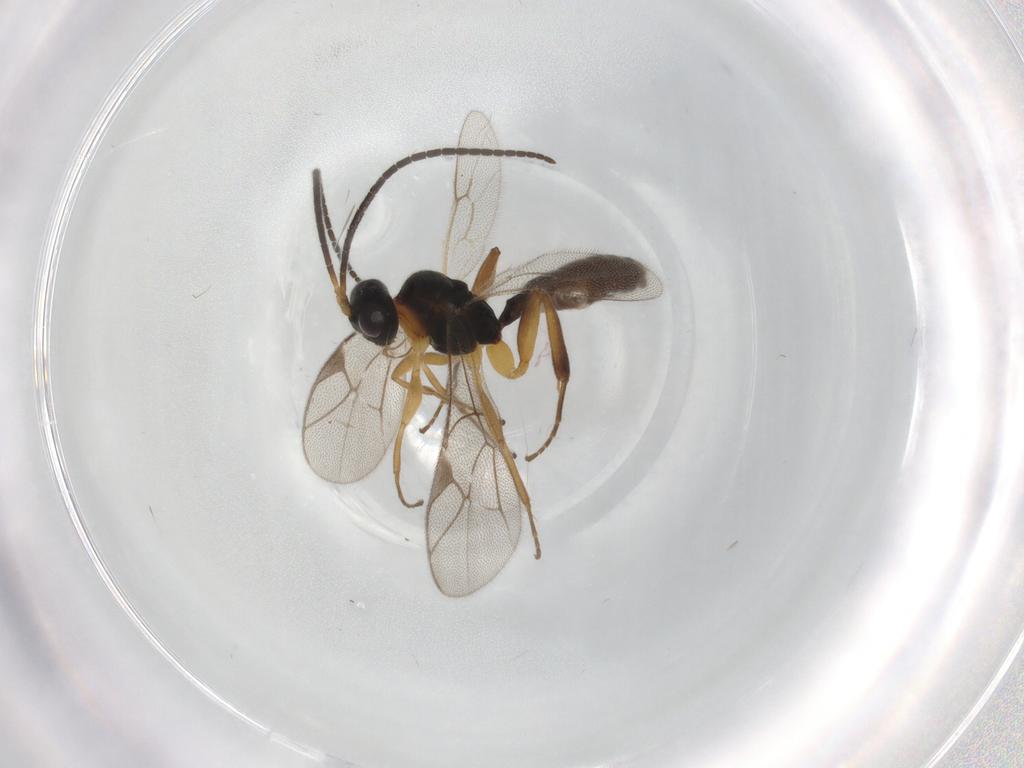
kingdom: Animalia
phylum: Arthropoda
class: Insecta
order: Hymenoptera
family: Ichneumonidae
